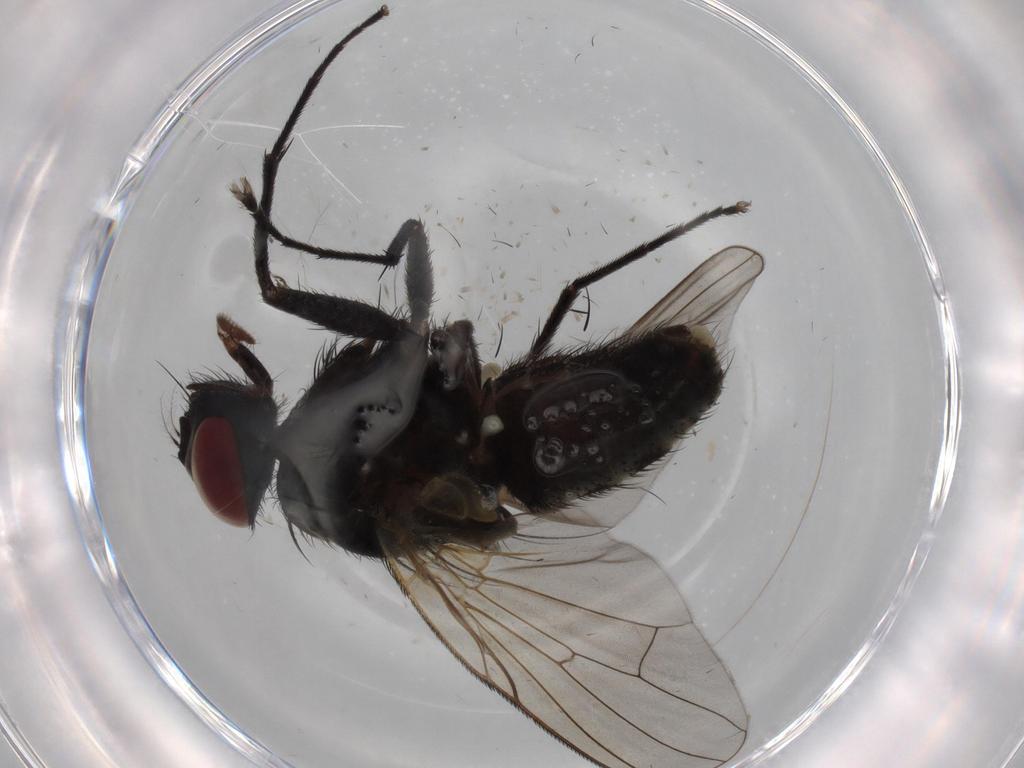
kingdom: Animalia
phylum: Arthropoda
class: Insecta
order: Diptera
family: Muscidae
